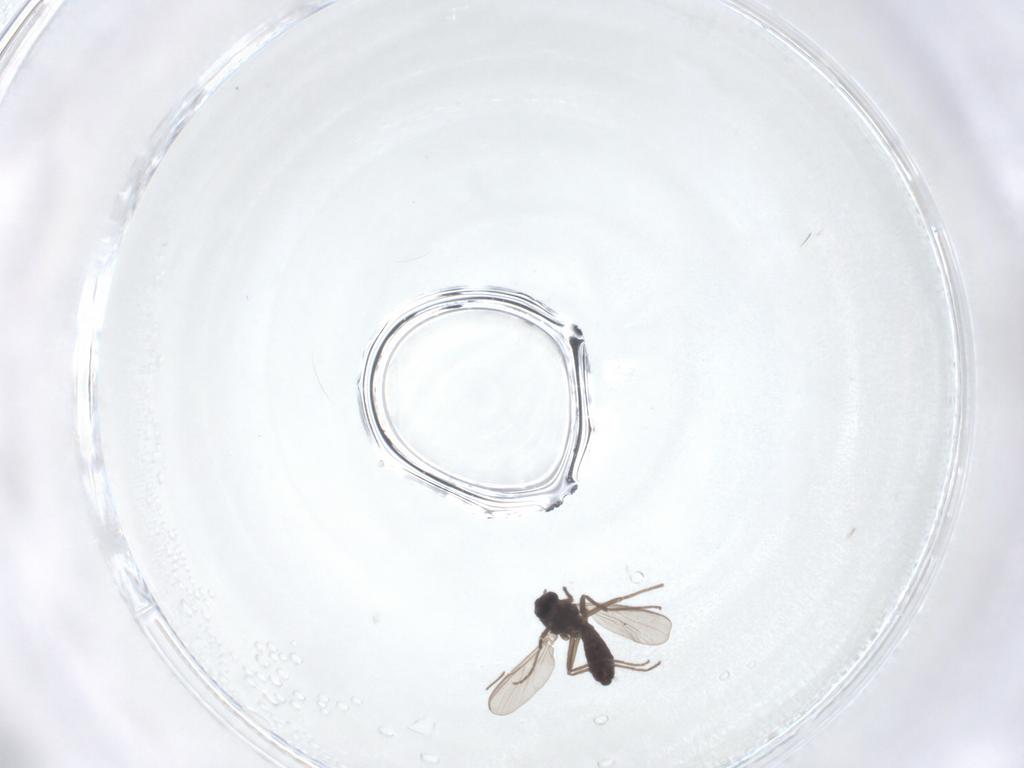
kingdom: Animalia
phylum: Arthropoda
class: Insecta
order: Diptera
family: Chironomidae
